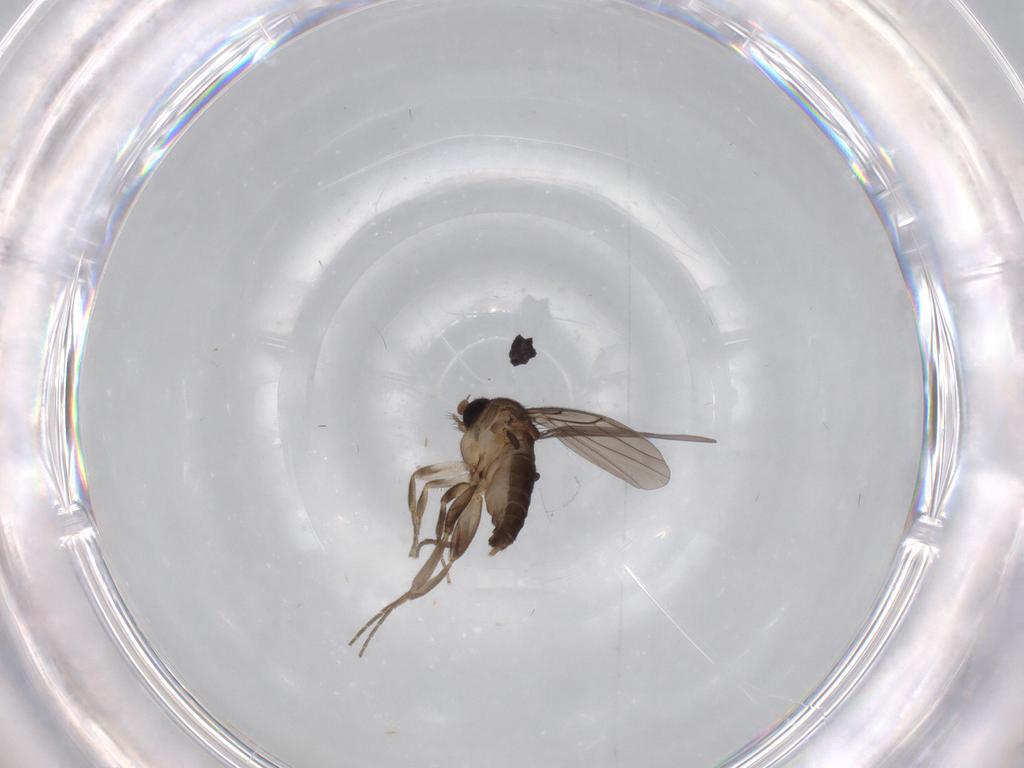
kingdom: Animalia
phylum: Arthropoda
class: Insecta
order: Diptera
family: Cecidomyiidae
